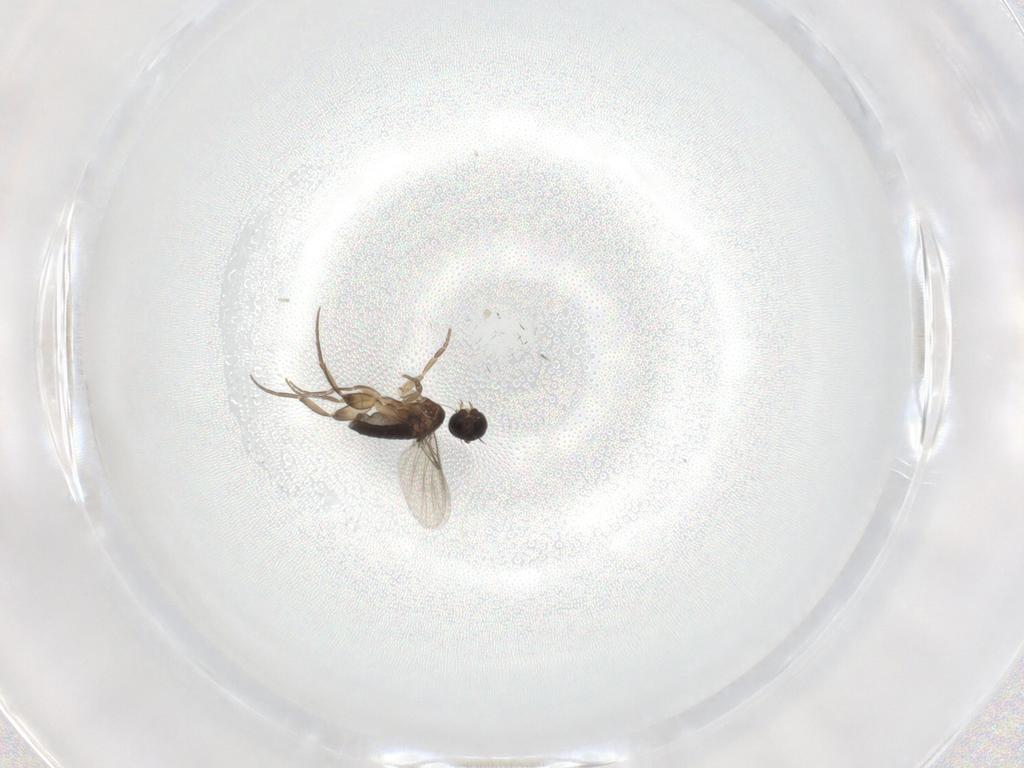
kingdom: Animalia
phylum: Arthropoda
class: Insecta
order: Diptera
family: Phoridae
